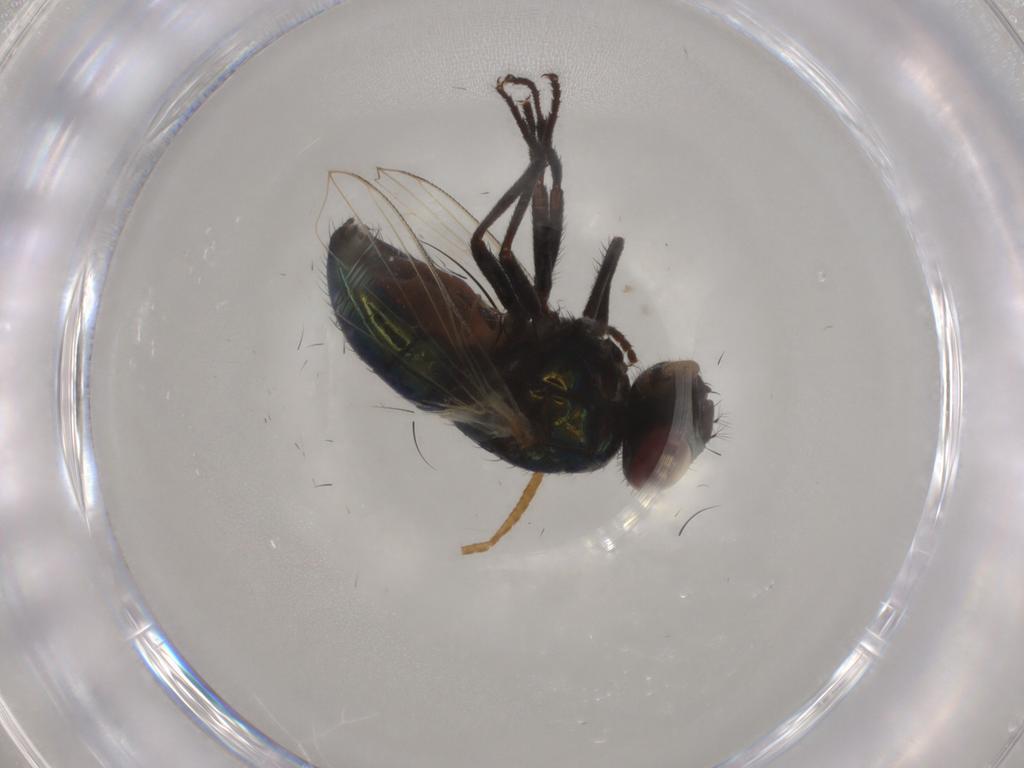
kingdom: Animalia
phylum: Arthropoda
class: Insecta
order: Diptera
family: Muscidae
